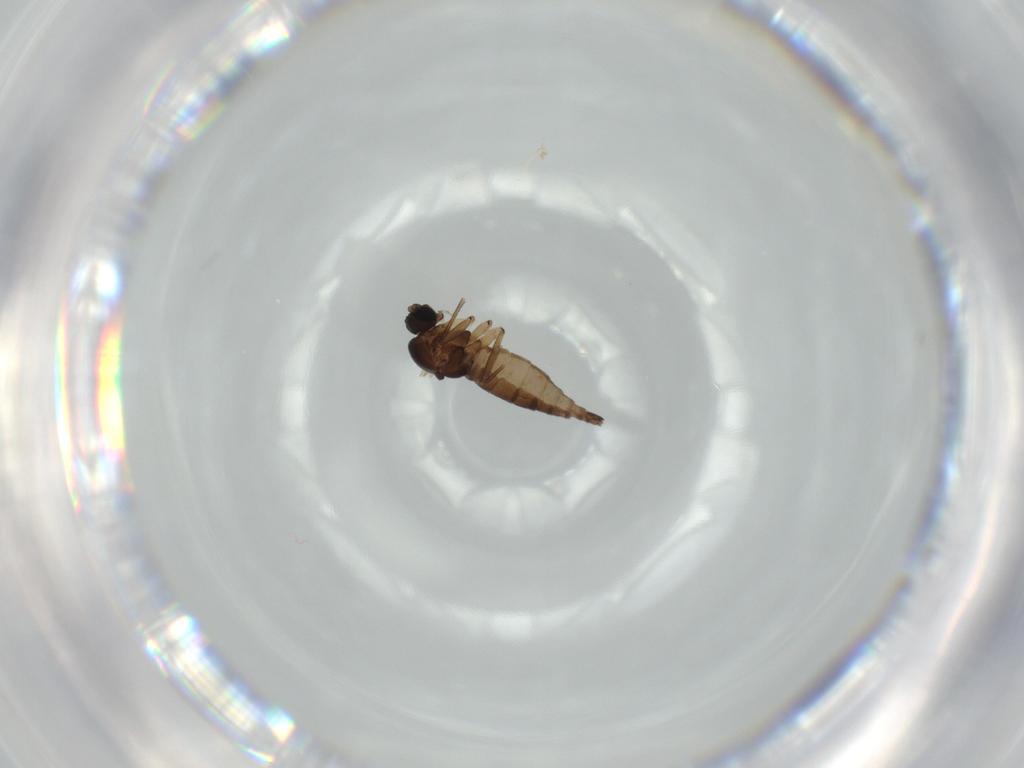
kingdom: Animalia
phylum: Arthropoda
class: Insecta
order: Diptera
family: Sciaridae
